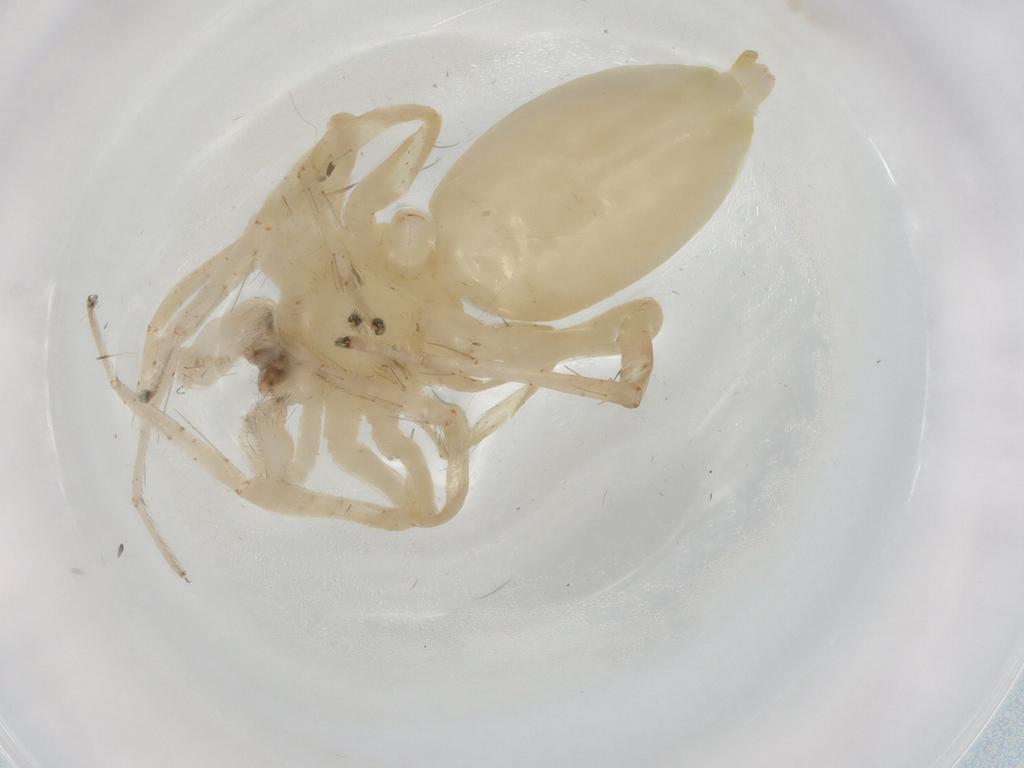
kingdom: Animalia
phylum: Arthropoda
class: Arachnida
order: Araneae
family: Anyphaenidae
